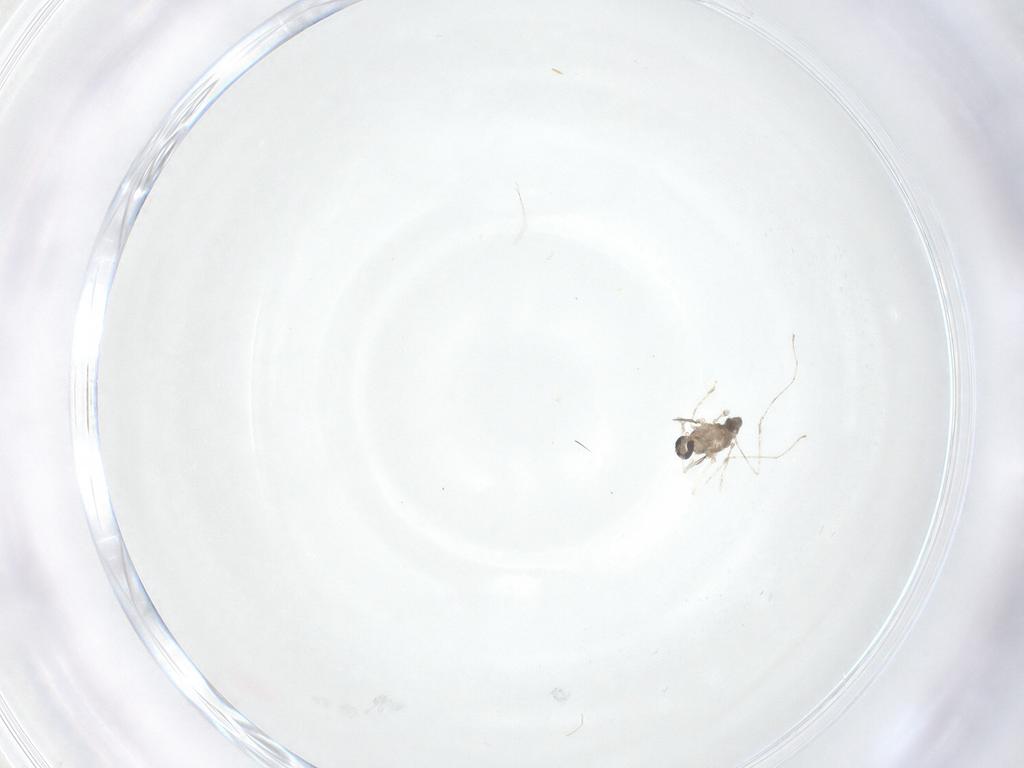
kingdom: Animalia
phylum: Arthropoda
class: Insecta
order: Diptera
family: Cecidomyiidae
